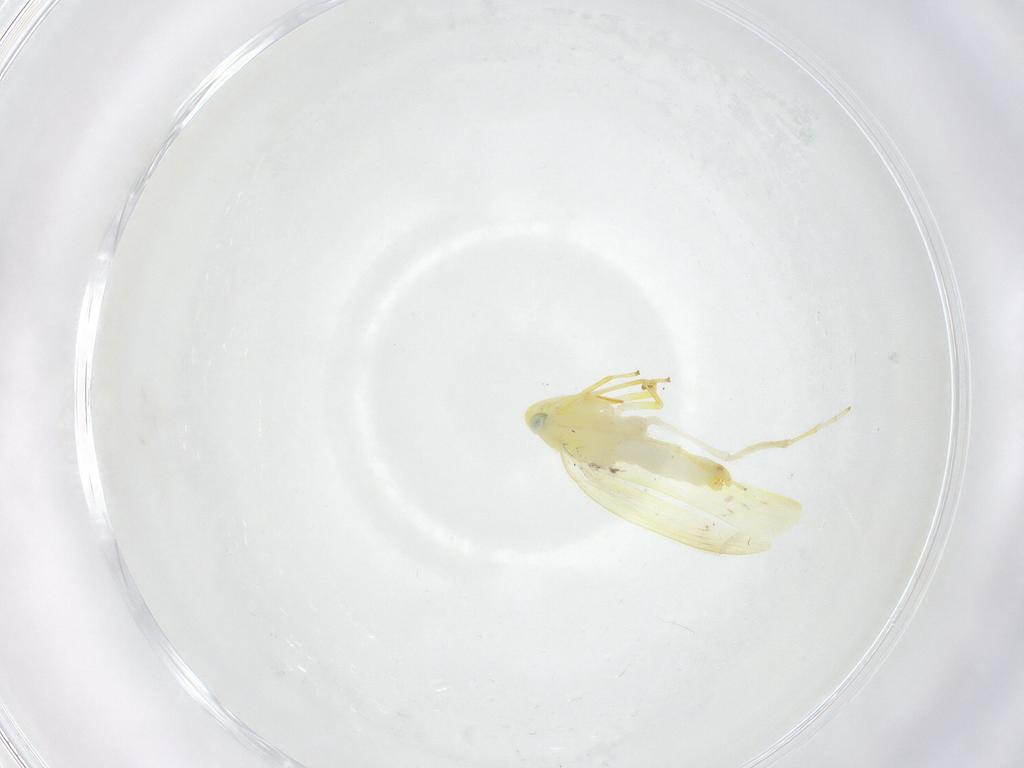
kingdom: Animalia
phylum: Arthropoda
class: Insecta
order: Hemiptera
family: Cicadellidae
